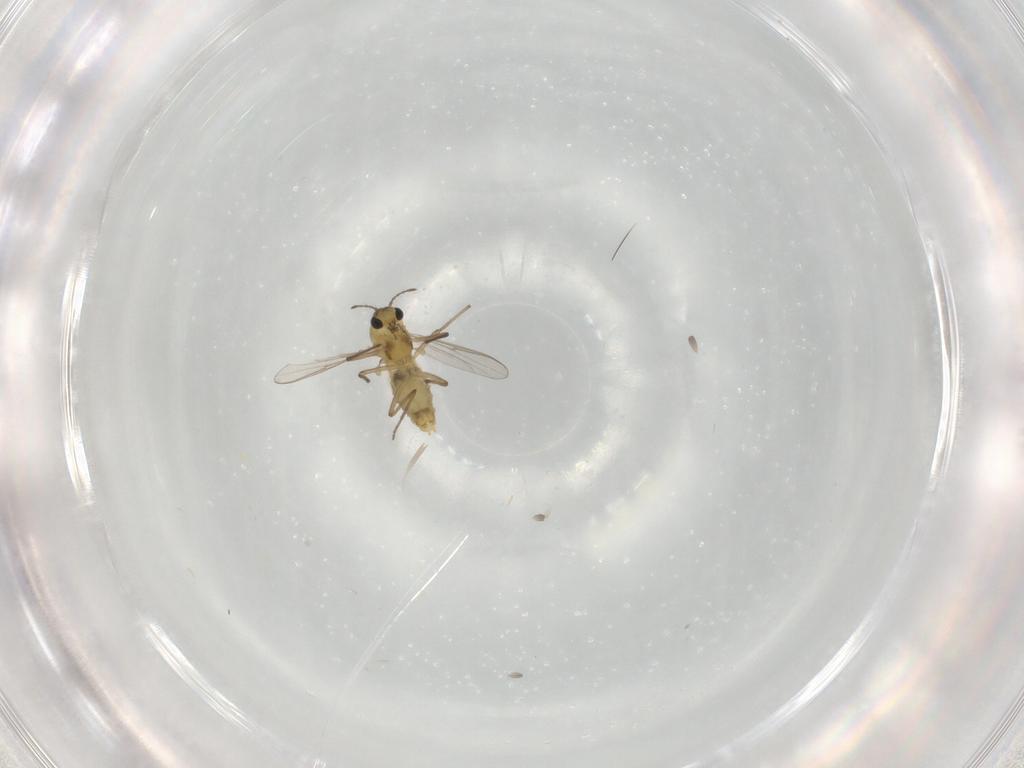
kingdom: Animalia
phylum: Arthropoda
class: Insecta
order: Diptera
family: Chironomidae
